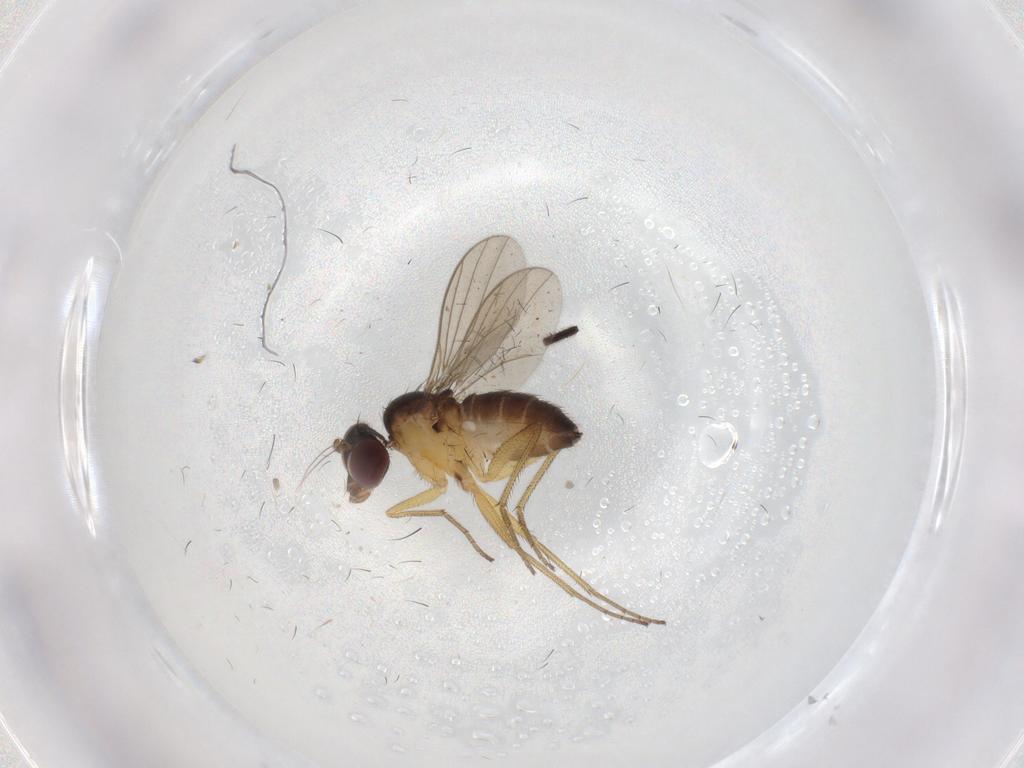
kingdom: Animalia
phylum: Arthropoda
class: Insecta
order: Diptera
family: Dolichopodidae
